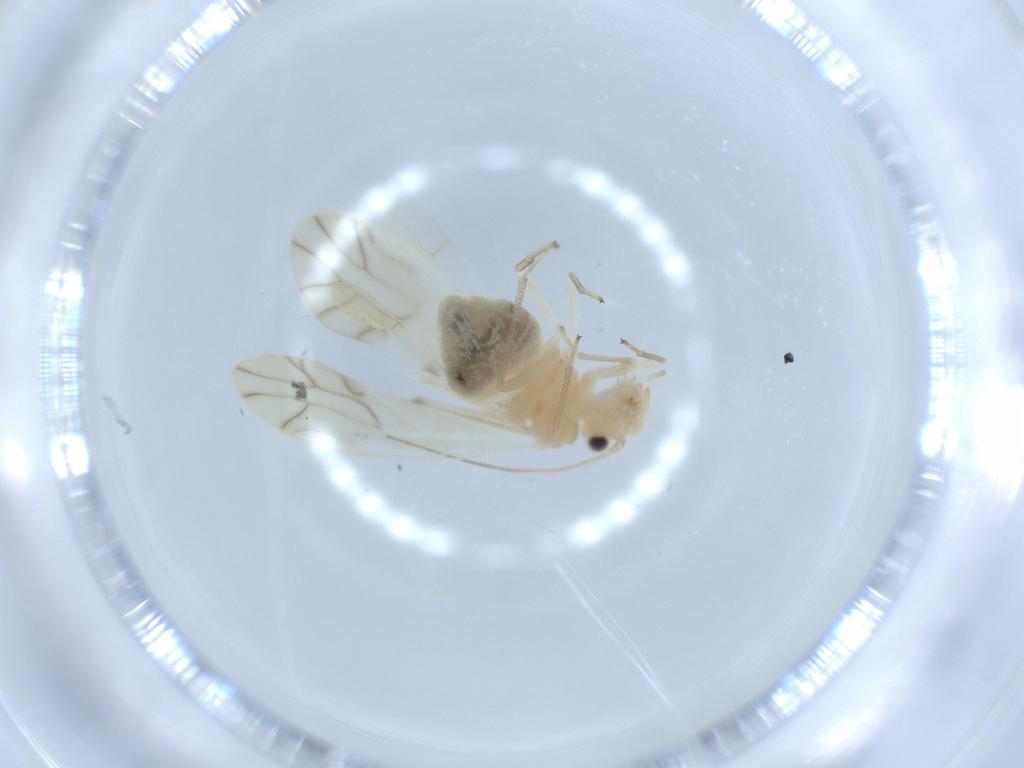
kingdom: Animalia
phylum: Arthropoda
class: Insecta
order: Psocodea
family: Caeciliusidae
